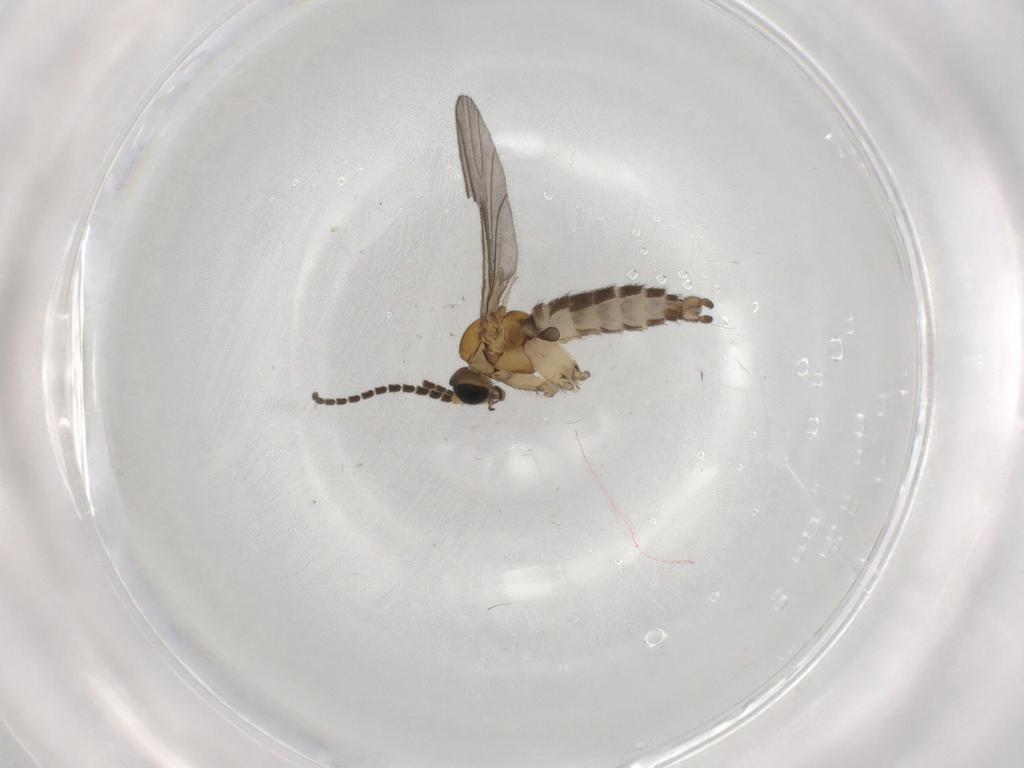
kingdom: Animalia
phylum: Arthropoda
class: Insecta
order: Diptera
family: Sciaridae
